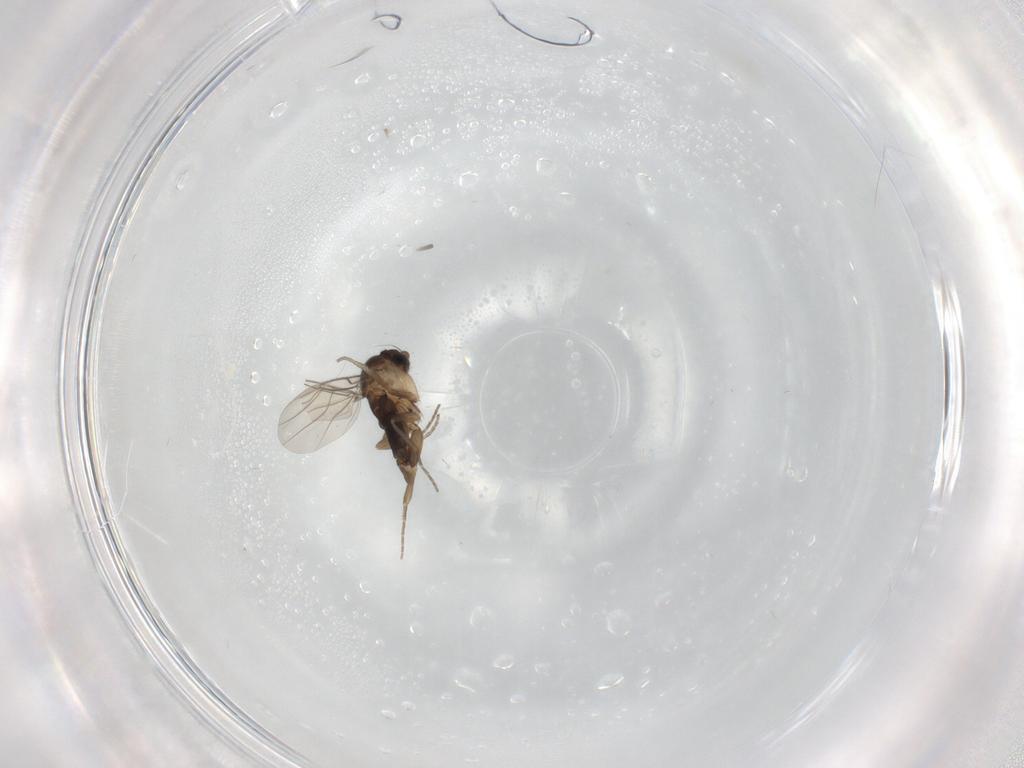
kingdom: Animalia
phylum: Arthropoda
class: Insecta
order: Diptera
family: Phoridae
